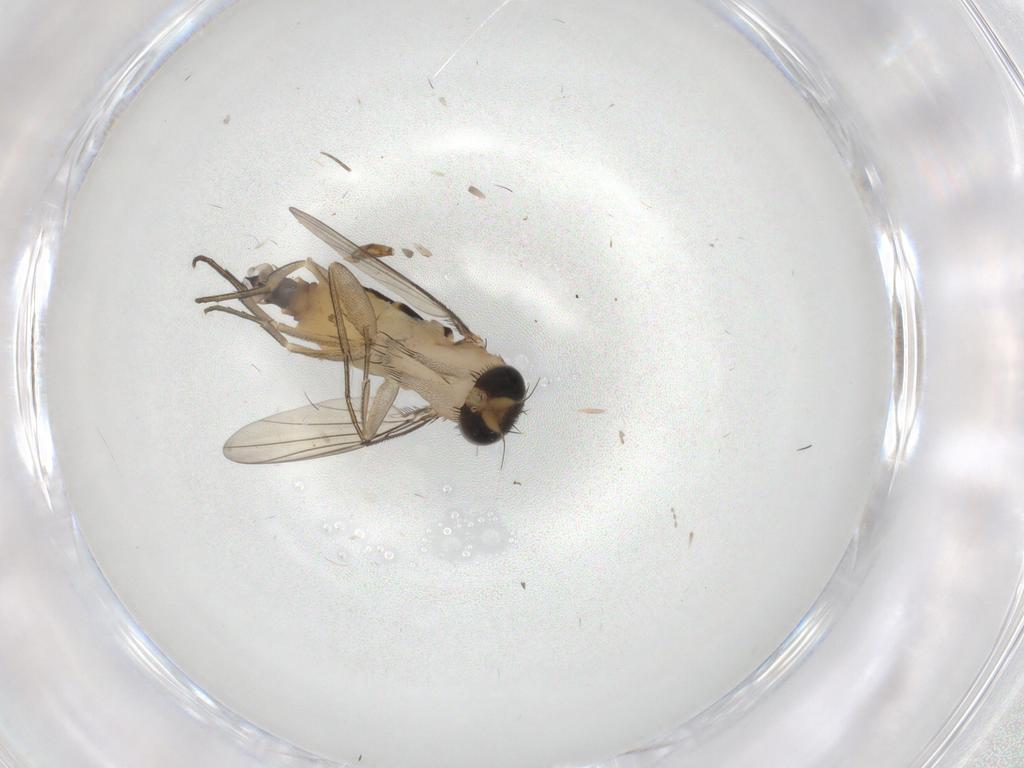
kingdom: Animalia
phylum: Arthropoda
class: Insecta
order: Diptera
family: Phoridae
